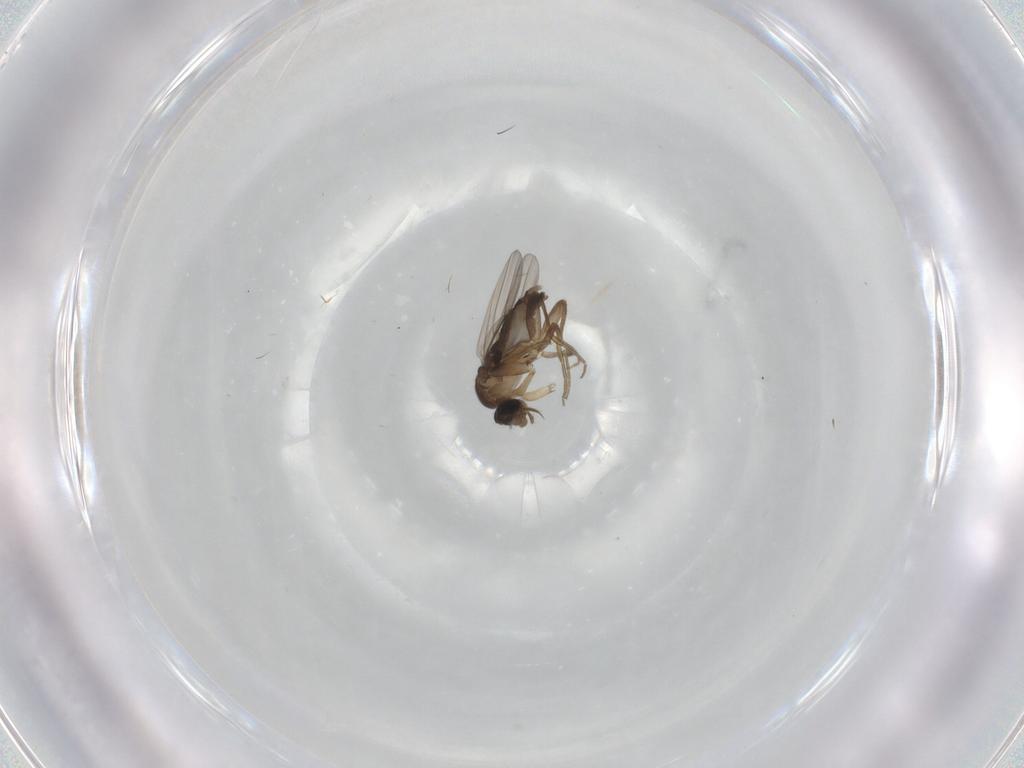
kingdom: Animalia
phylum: Arthropoda
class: Insecta
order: Diptera
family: Phoridae
